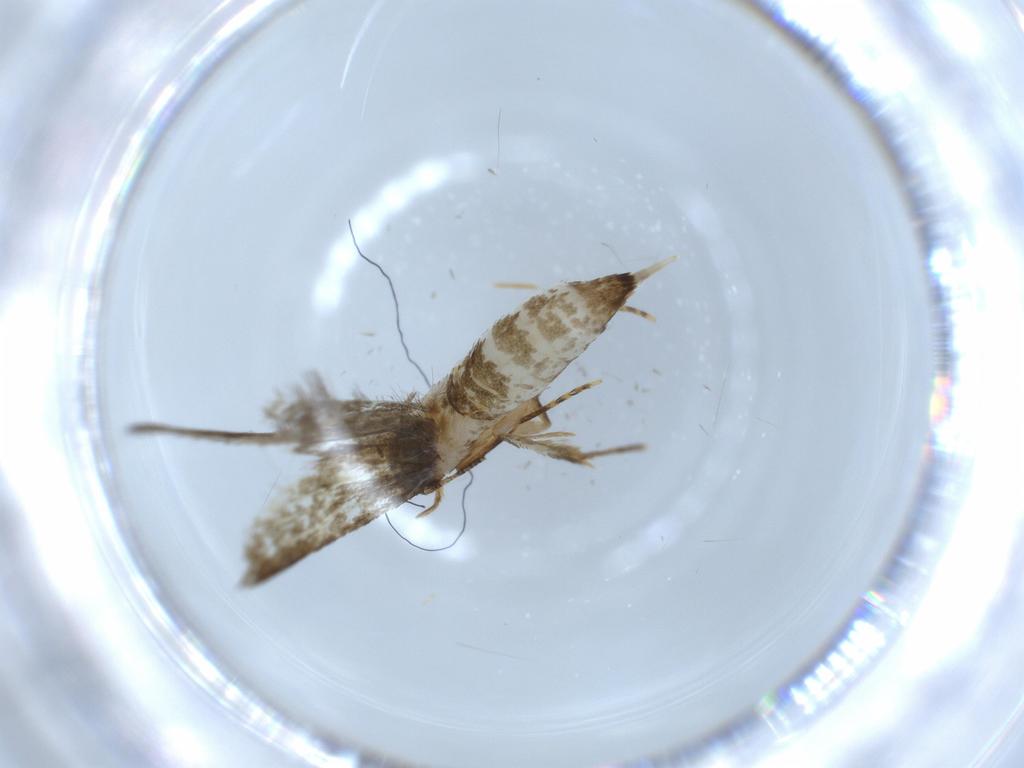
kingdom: Animalia
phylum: Arthropoda
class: Insecta
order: Lepidoptera
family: Tineidae
